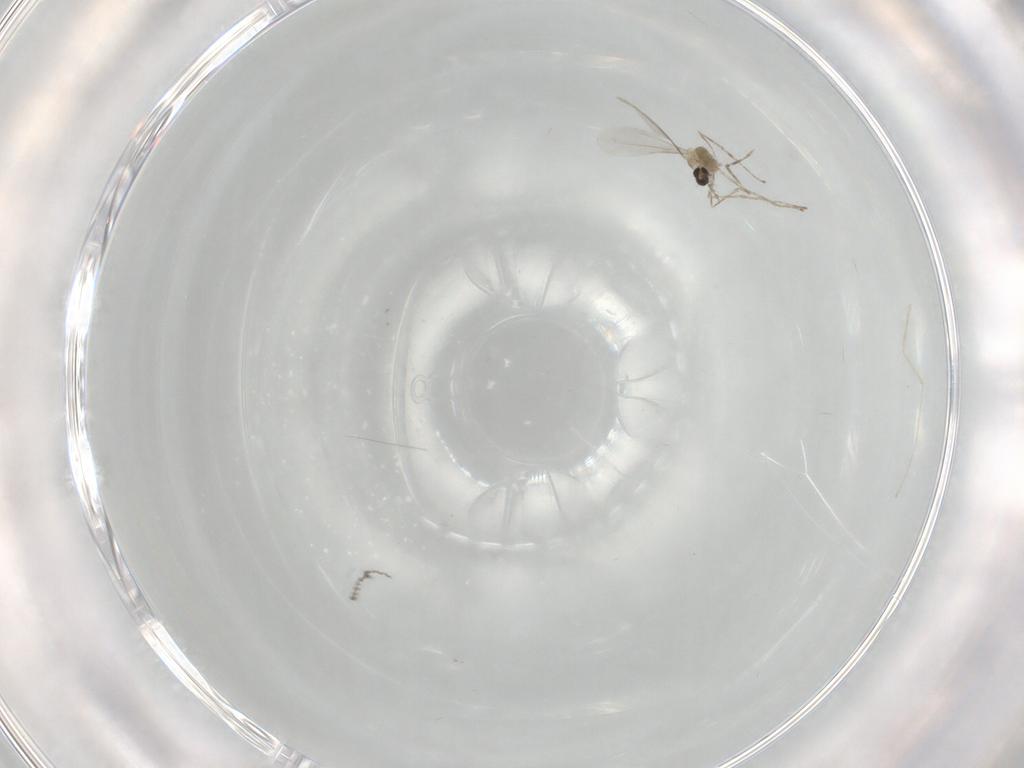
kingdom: Animalia
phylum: Arthropoda
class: Insecta
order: Diptera
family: Cecidomyiidae
